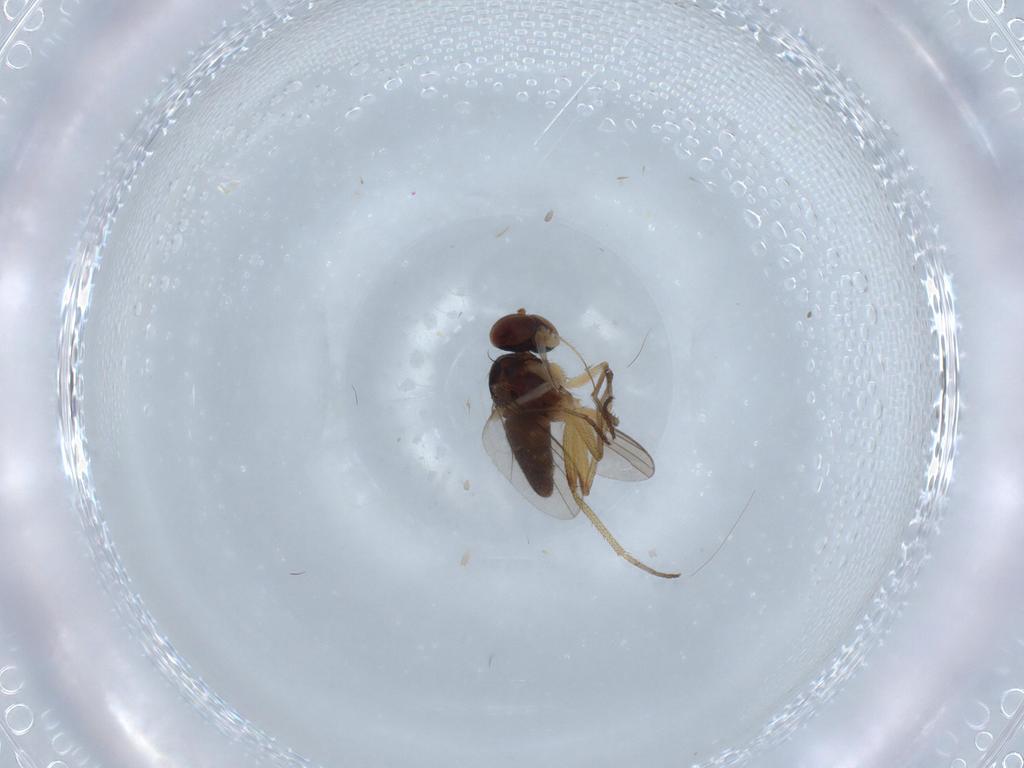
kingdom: Animalia
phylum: Arthropoda
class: Insecta
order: Diptera
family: Dolichopodidae
